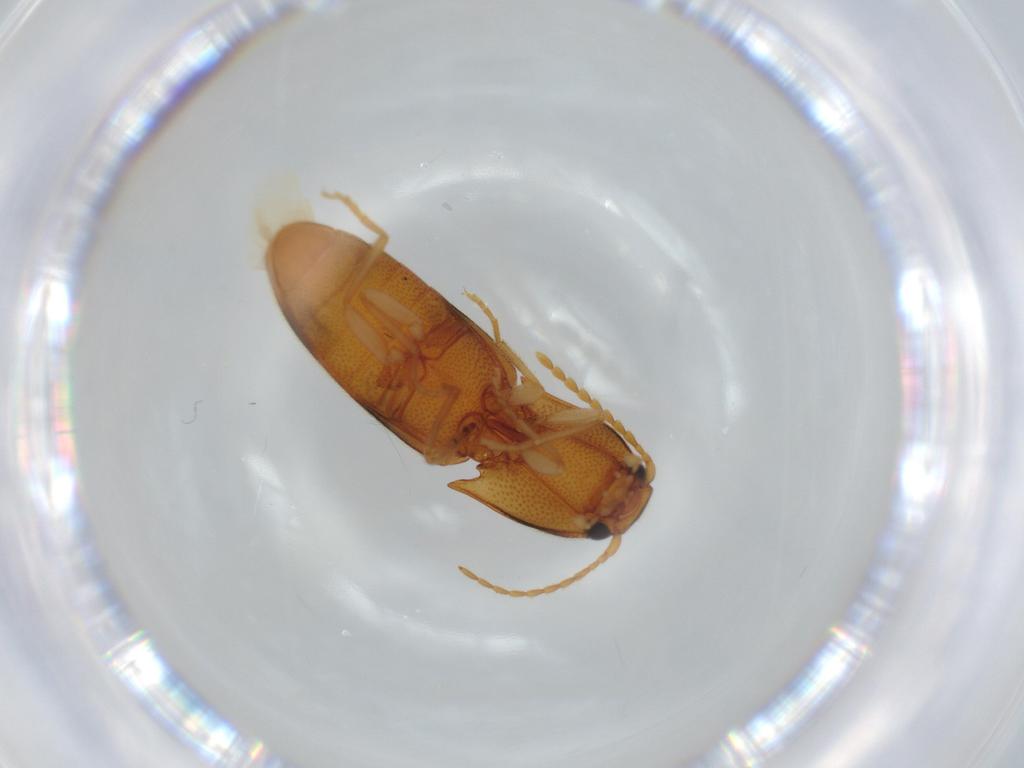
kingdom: Animalia
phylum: Arthropoda
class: Insecta
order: Coleoptera
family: Elateridae
